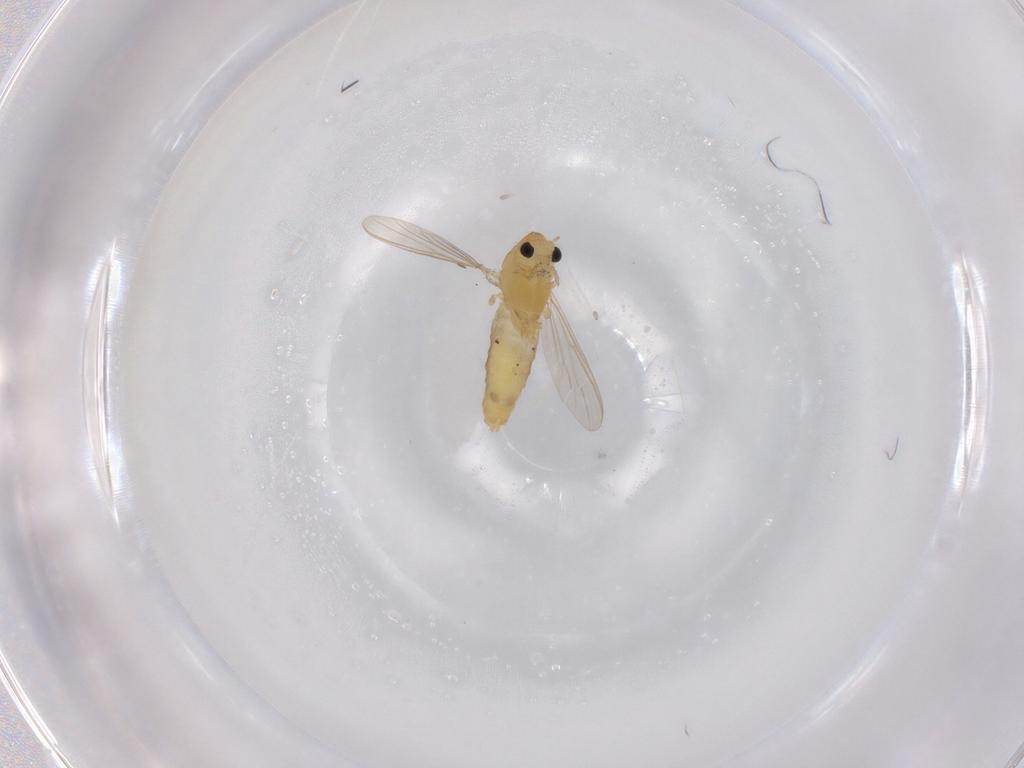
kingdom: Animalia
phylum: Arthropoda
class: Insecta
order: Diptera
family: Chironomidae
